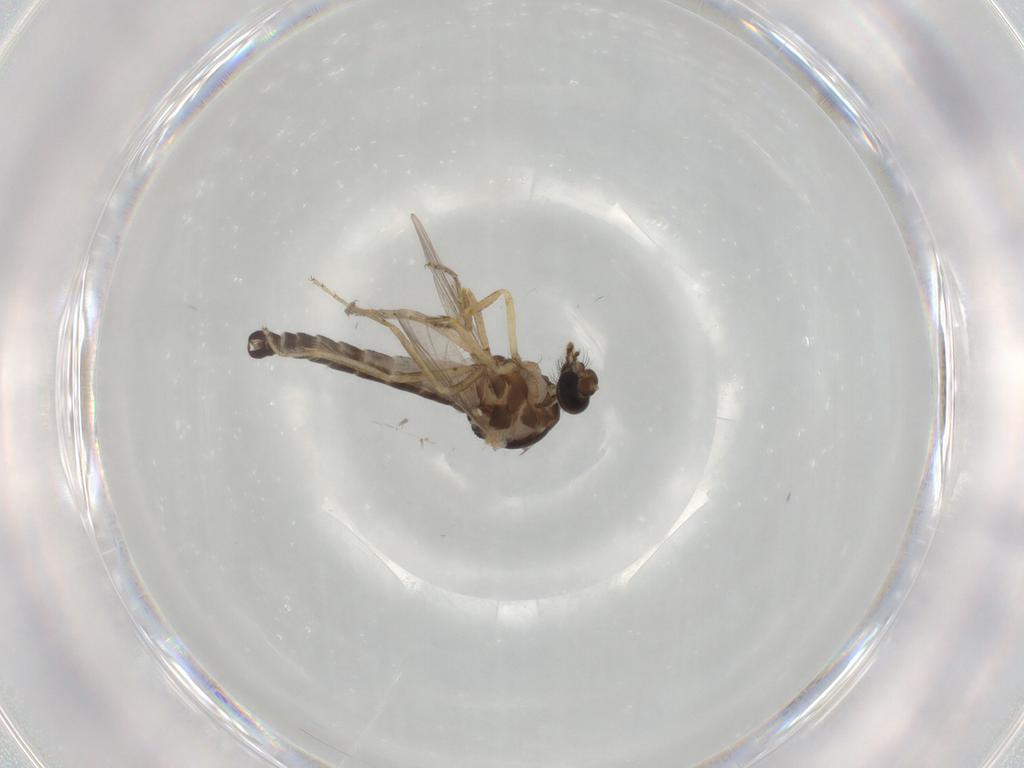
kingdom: Animalia
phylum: Arthropoda
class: Insecta
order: Diptera
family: Ceratopogonidae
